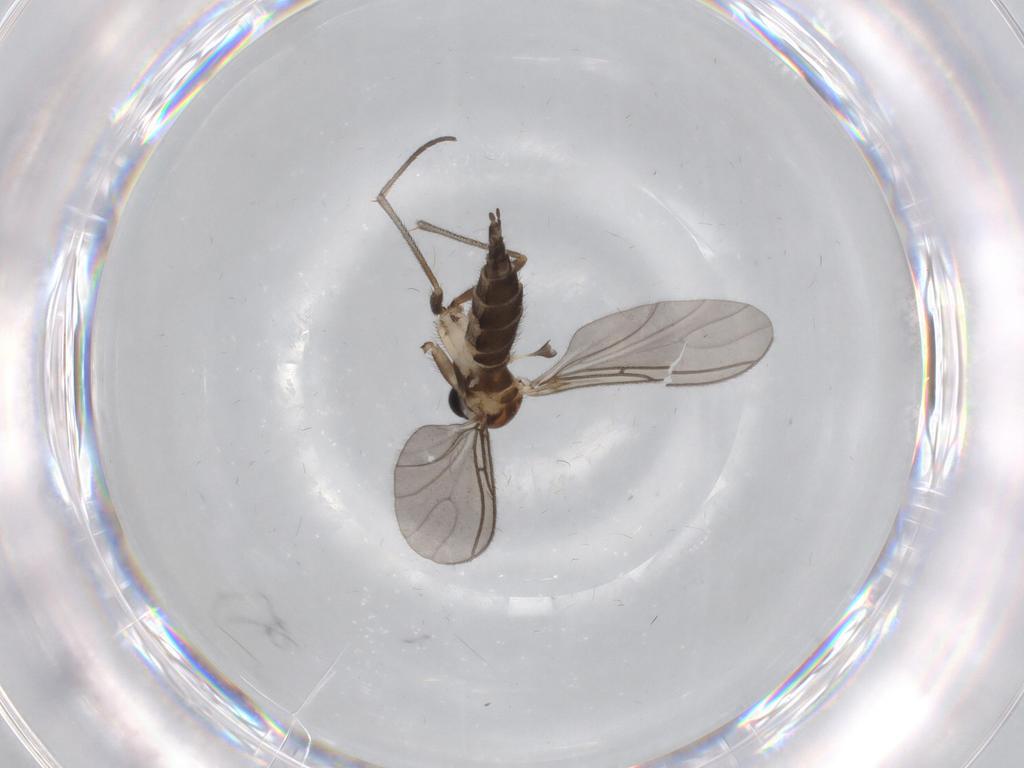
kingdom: Animalia
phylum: Arthropoda
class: Insecta
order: Diptera
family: Sciaridae
